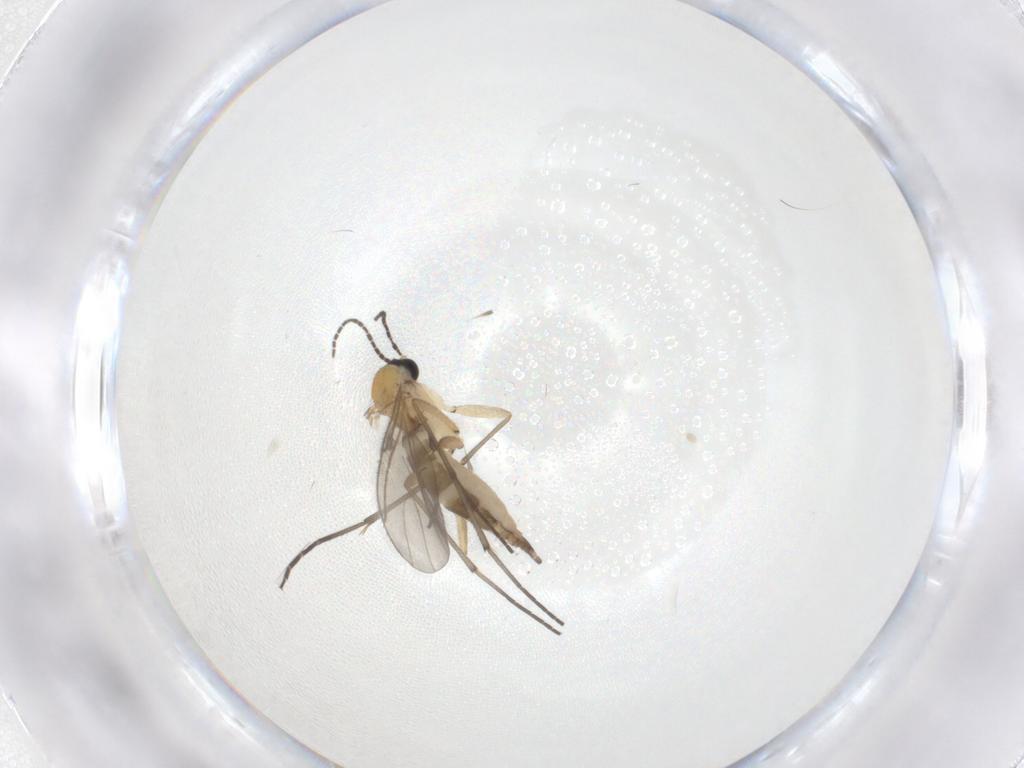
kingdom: Animalia
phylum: Arthropoda
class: Insecta
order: Diptera
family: Sciaridae
